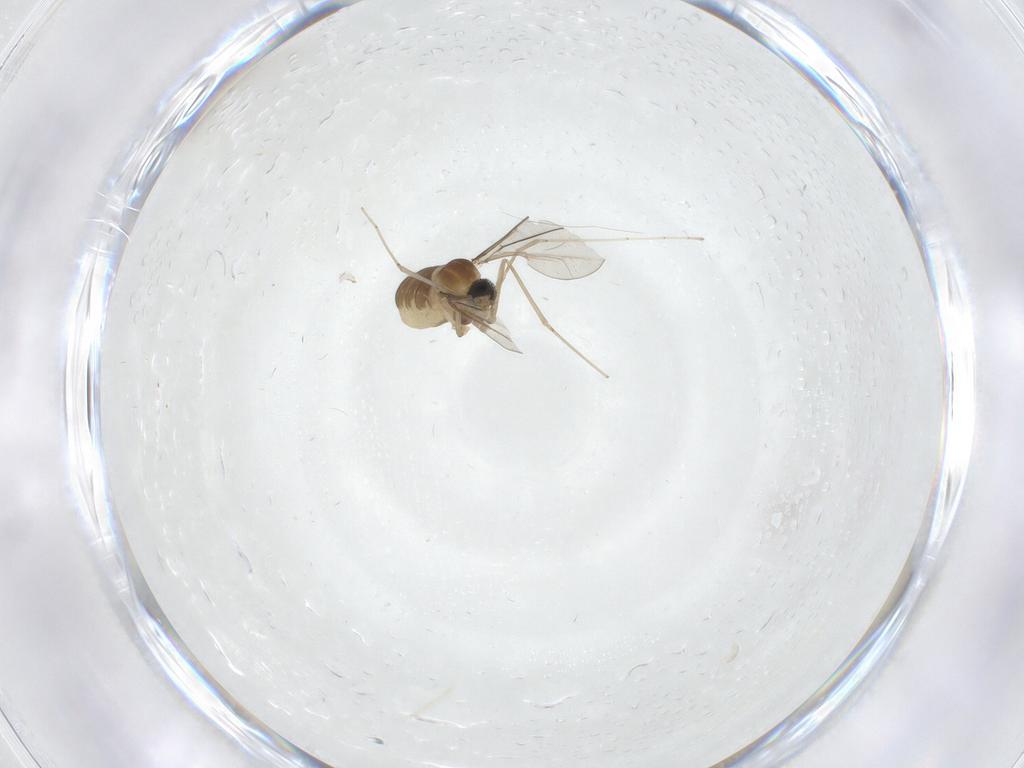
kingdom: Animalia
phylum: Arthropoda
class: Insecta
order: Diptera
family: Cecidomyiidae
